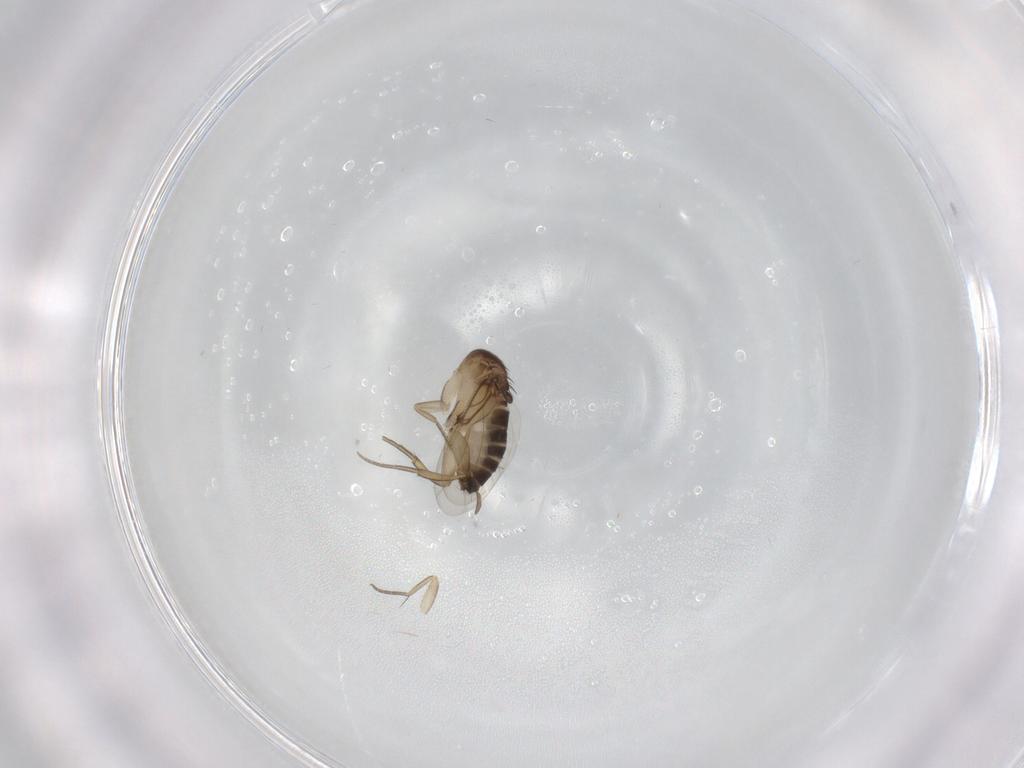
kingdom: Animalia
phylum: Arthropoda
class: Insecta
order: Diptera
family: Phoridae
